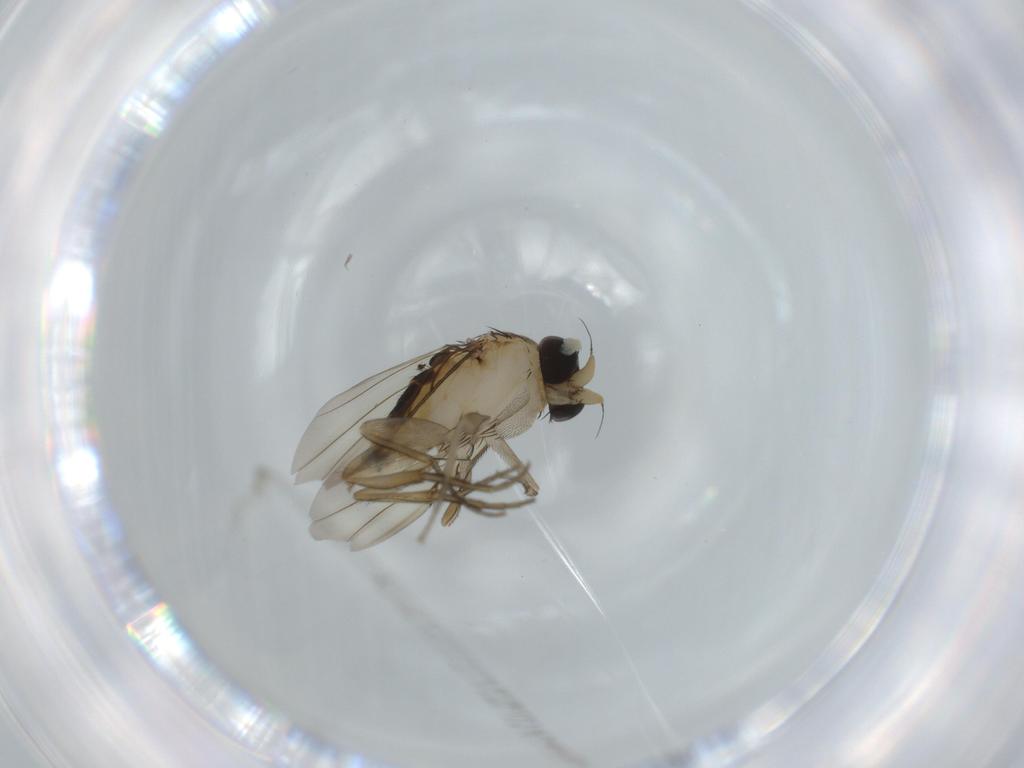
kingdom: Animalia
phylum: Arthropoda
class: Insecta
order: Diptera
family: Phoridae
